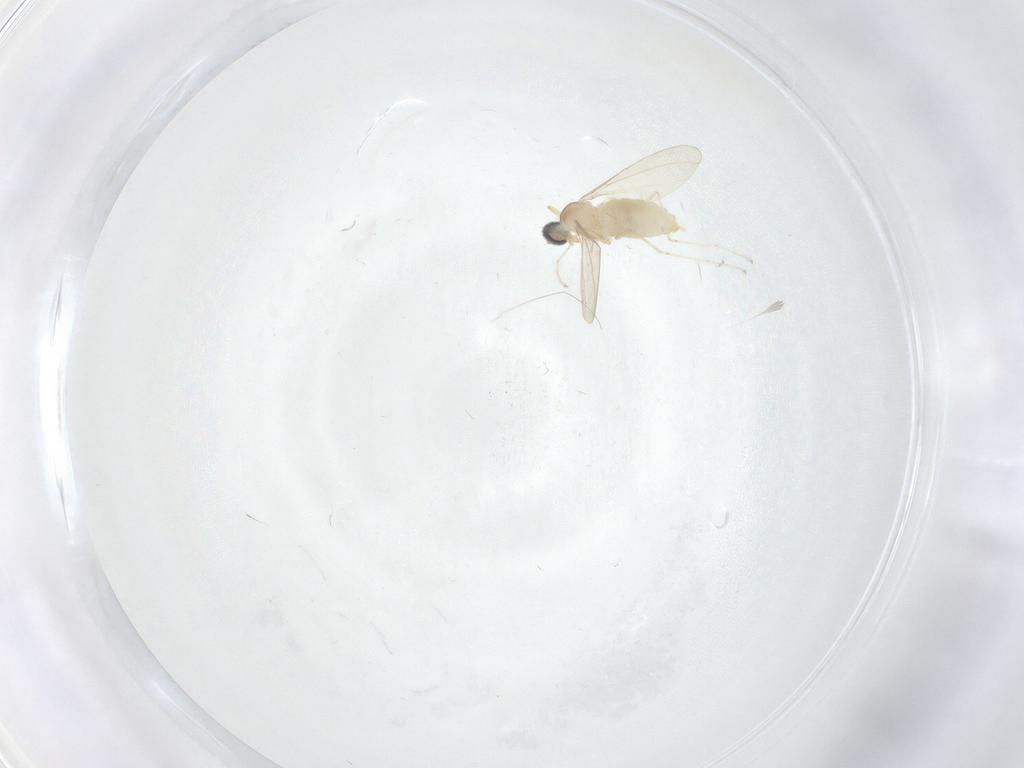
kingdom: Animalia
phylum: Arthropoda
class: Insecta
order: Diptera
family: Cecidomyiidae
